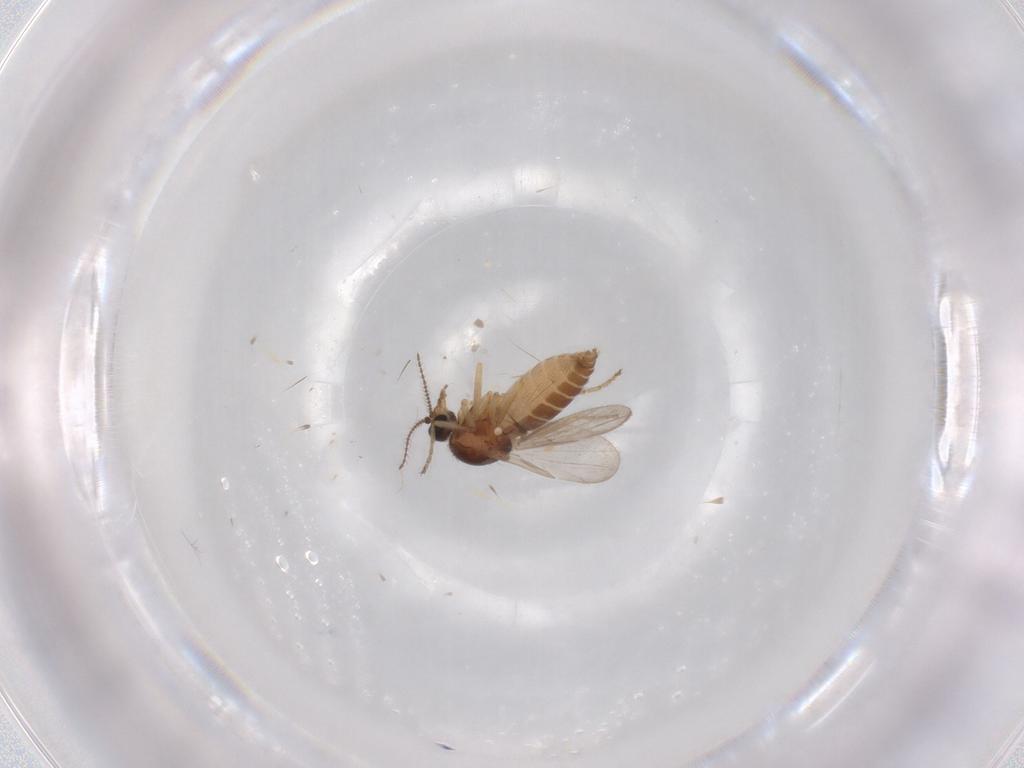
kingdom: Animalia
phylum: Arthropoda
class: Insecta
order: Diptera
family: Ceratopogonidae
